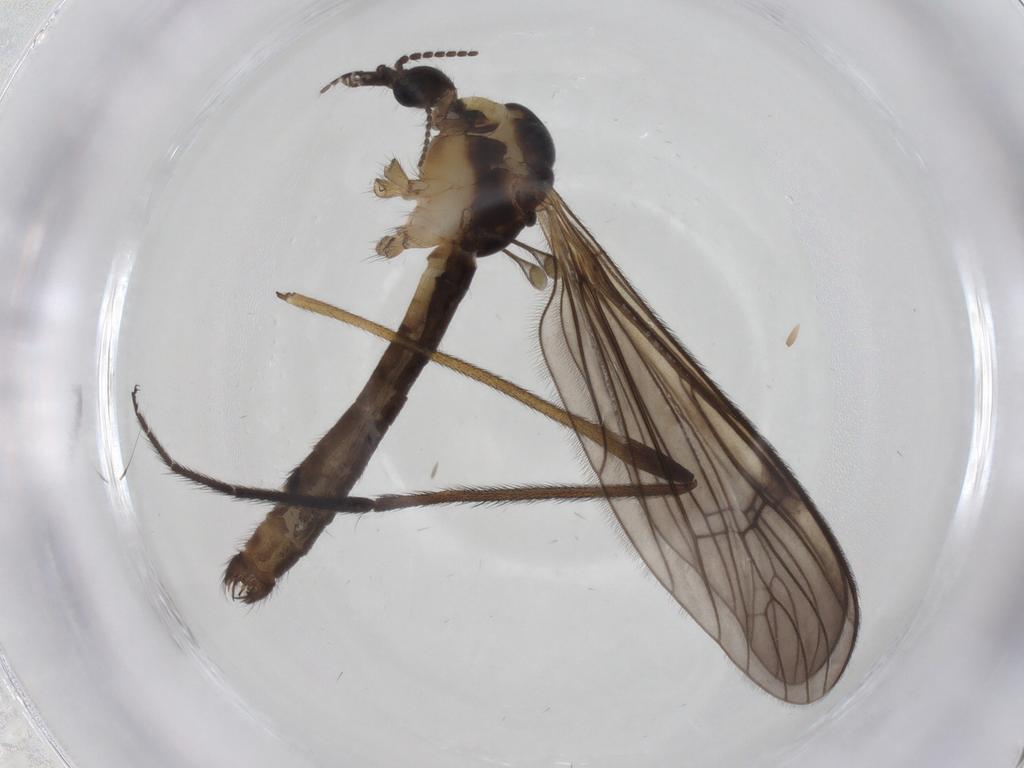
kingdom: Animalia
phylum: Arthropoda
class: Insecta
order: Diptera
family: Limoniidae
